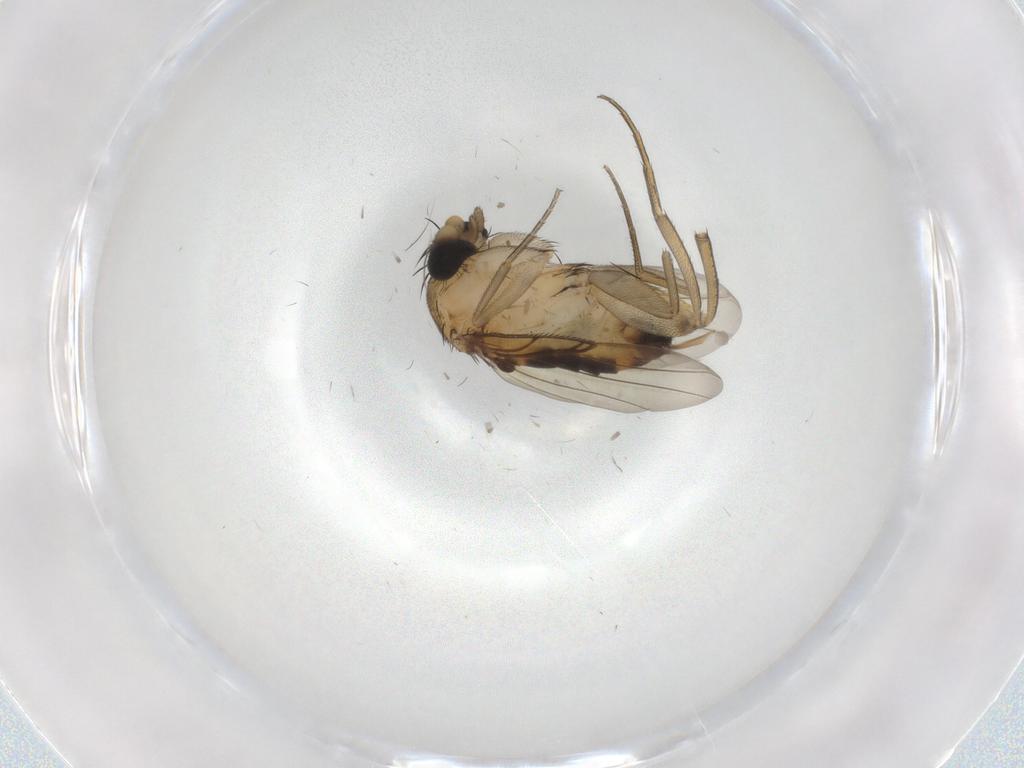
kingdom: Animalia
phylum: Arthropoda
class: Insecta
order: Diptera
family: Phoridae
